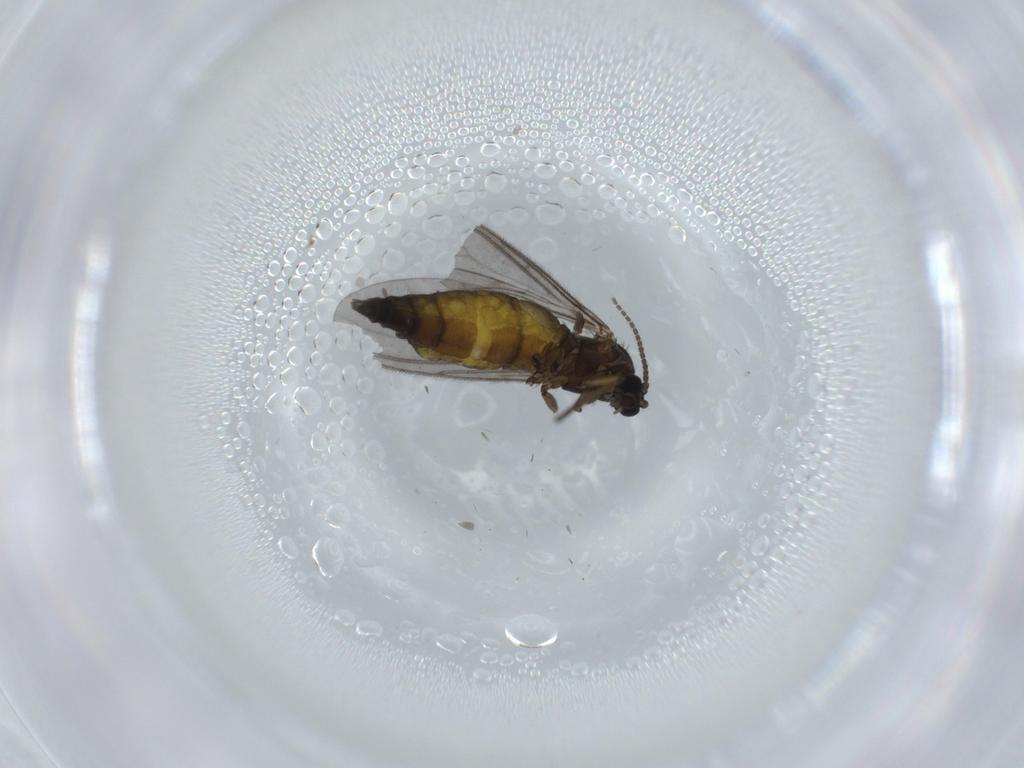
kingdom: Animalia
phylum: Arthropoda
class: Insecta
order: Diptera
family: Sciaridae
